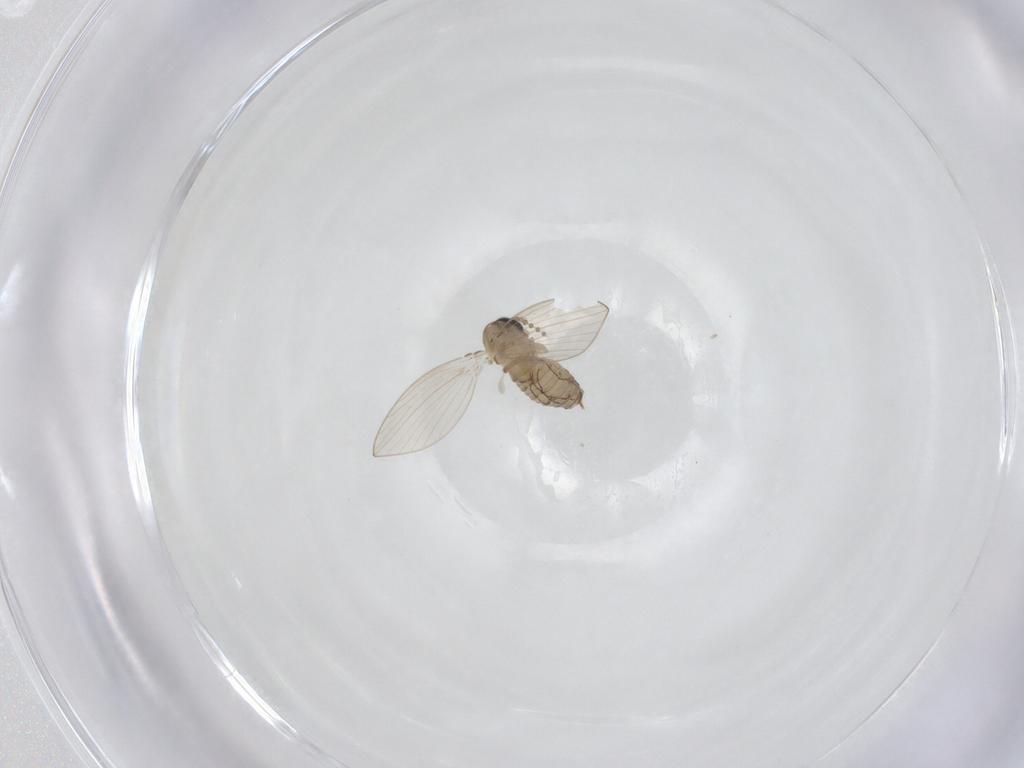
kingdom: Animalia
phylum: Arthropoda
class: Insecta
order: Diptera
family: Psychodidae
